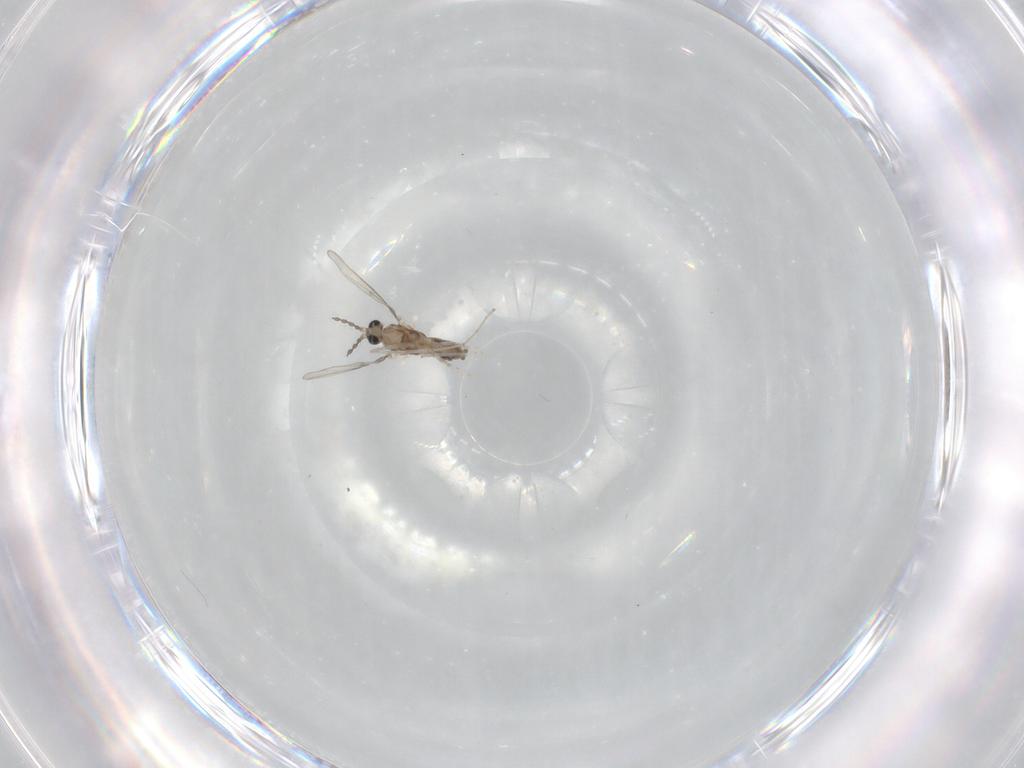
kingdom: Animalia
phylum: Arthropoda
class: Insecta
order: Diptera
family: Cecidomyiidae
